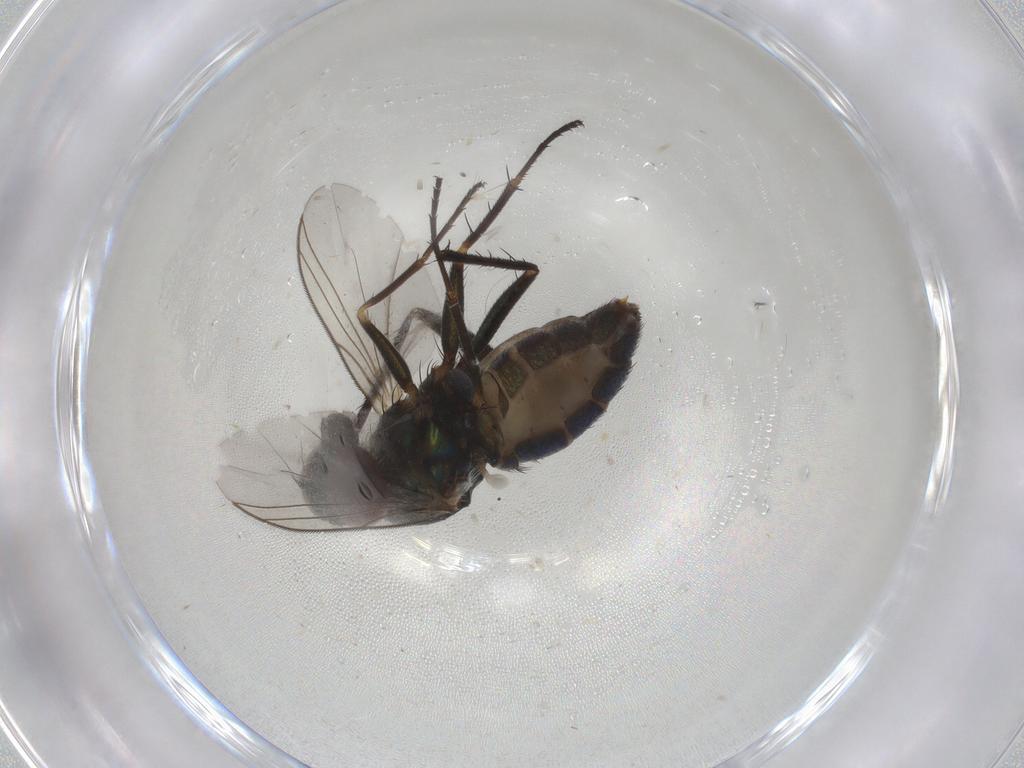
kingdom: Animalia
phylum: Arthropoda
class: Insecta
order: Diptera
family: Dolichopodidae
